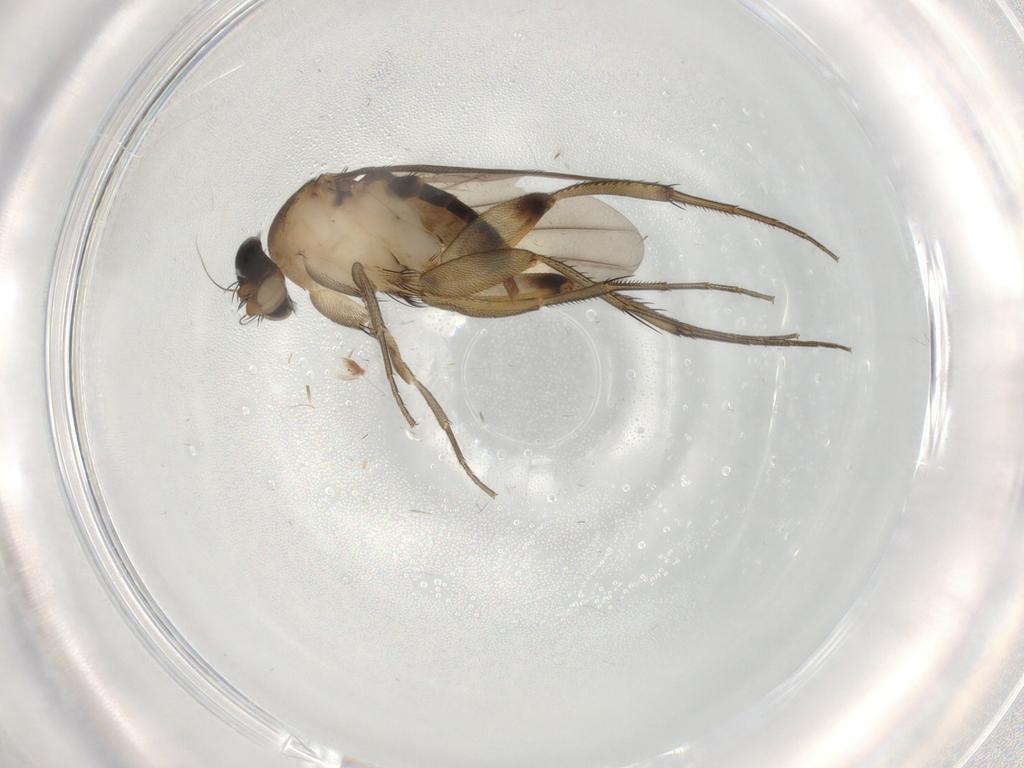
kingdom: Animalia
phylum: Arthropoda
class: Insecta
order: Diptera
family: Phoridae
